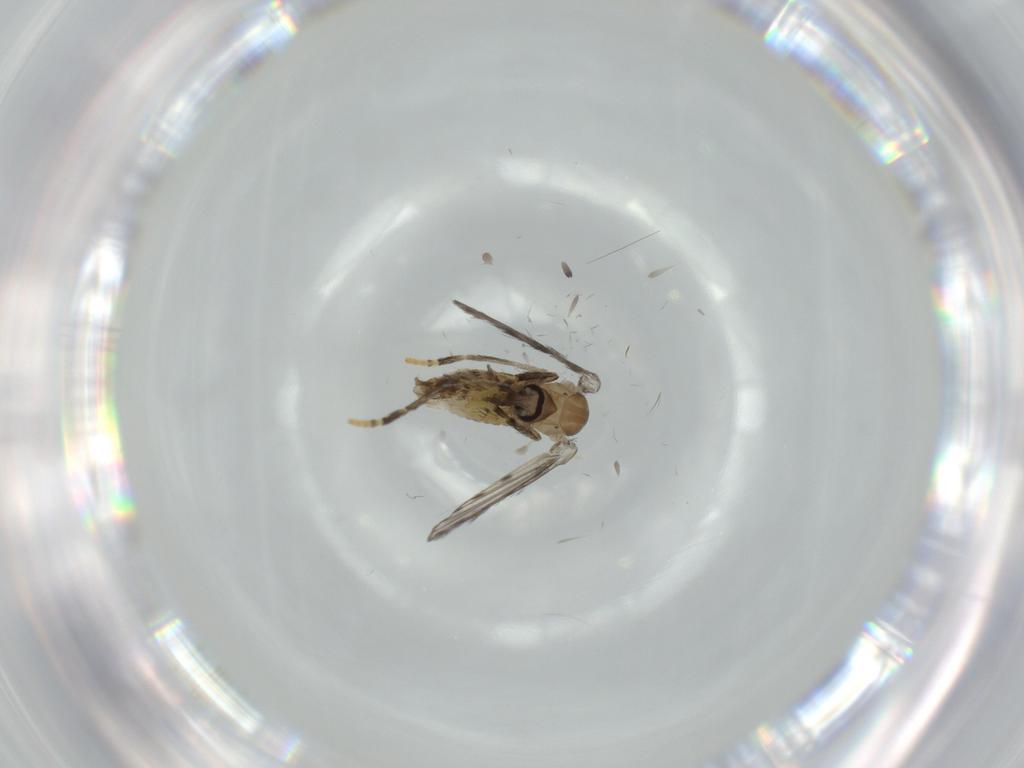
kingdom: Animalia
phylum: Arthropoda
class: Insecta
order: Diptera
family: Psychodidae
